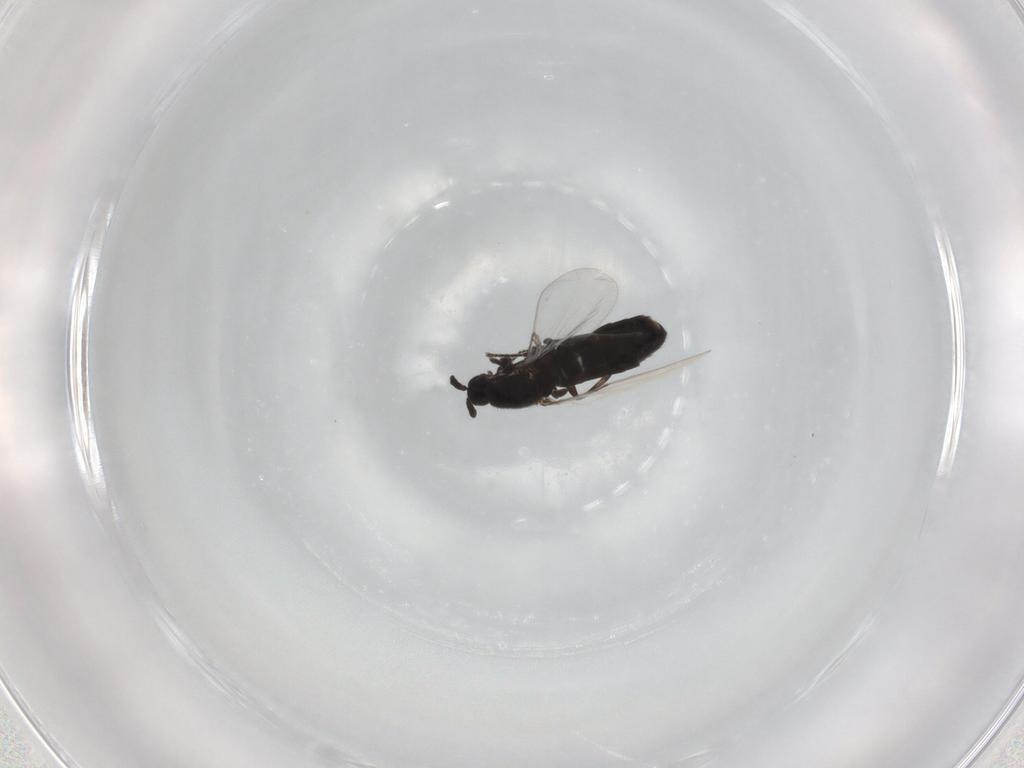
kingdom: Animalia
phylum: Arthropoda
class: Insecta
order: Diptera
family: Scatopsidae
